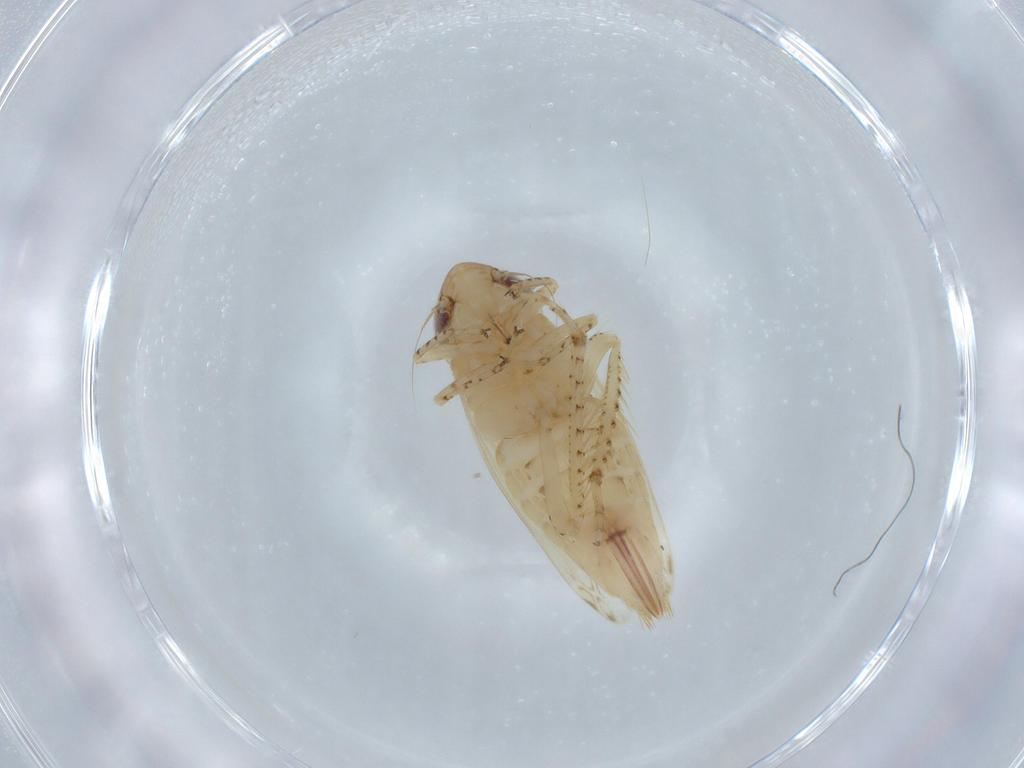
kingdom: Animalia
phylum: Arthropoda
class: Insecta
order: Hemiptera
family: Cicadellidae
